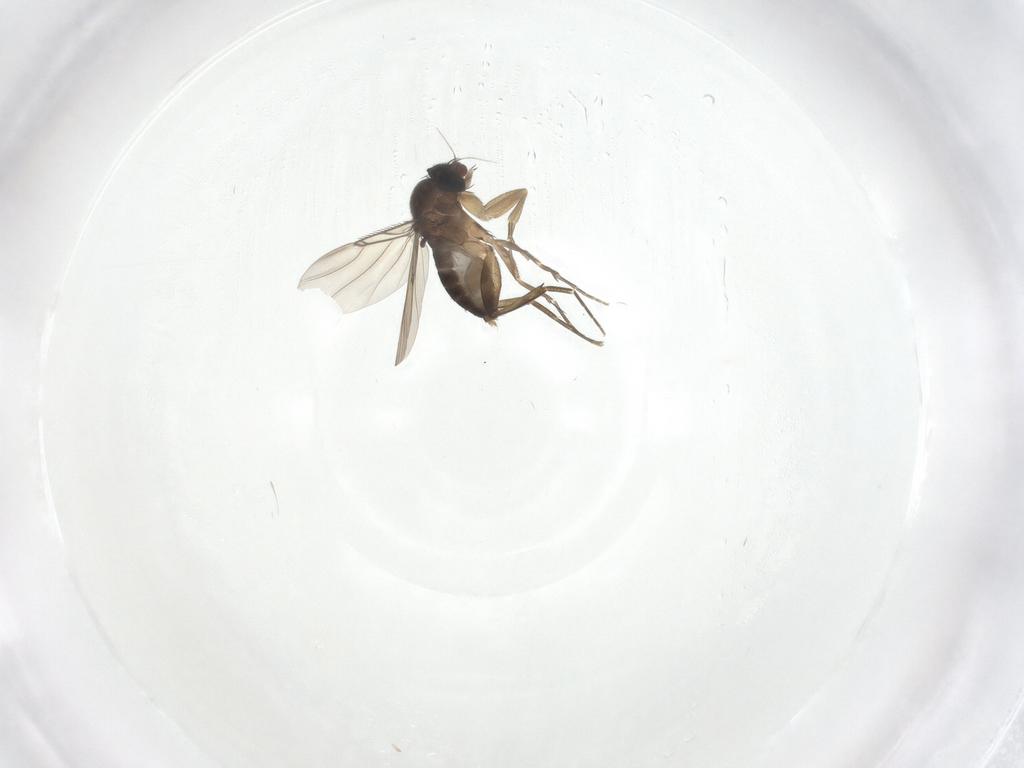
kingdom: Animalia
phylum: Arthropoda
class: Insecta
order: Diptera
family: Phoridae
